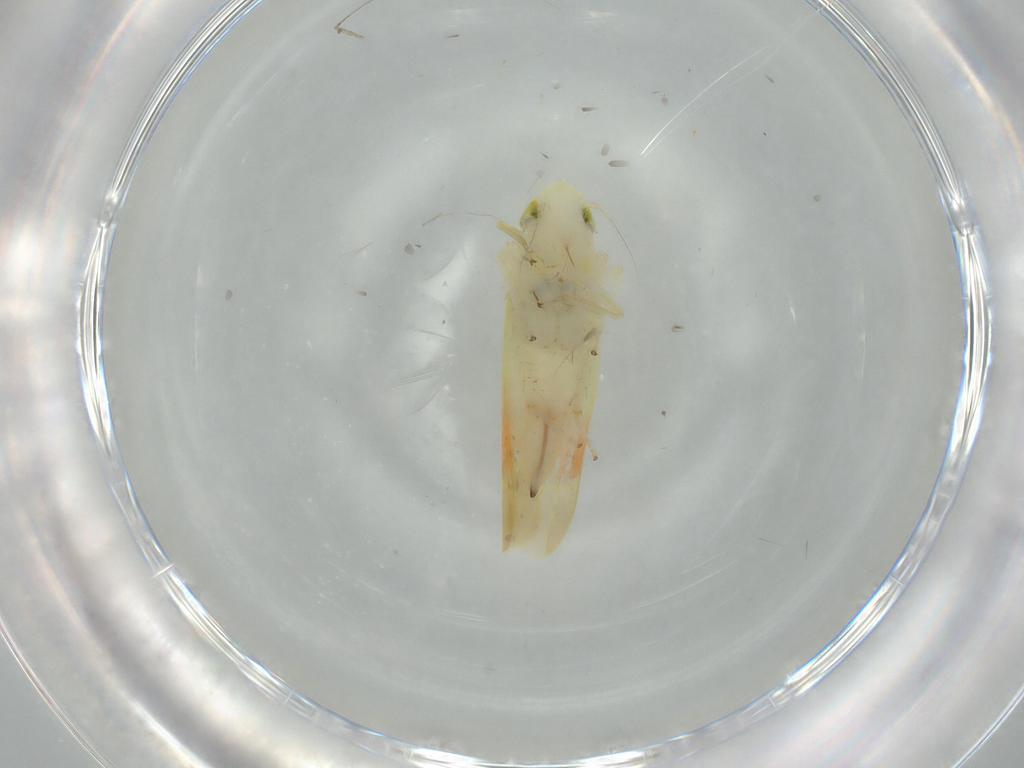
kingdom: Animalia
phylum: Arthropoda
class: Insecta
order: Hemiptera
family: Cicadellidae
